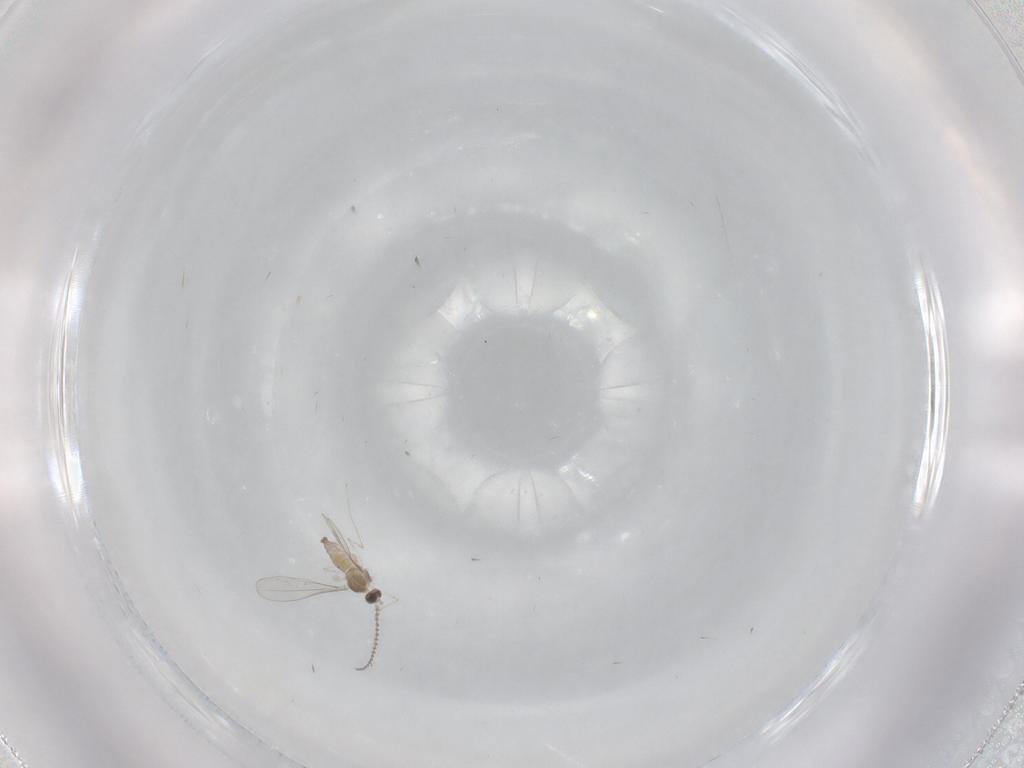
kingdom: Animalia
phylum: Arthropoda
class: Insecta
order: Diptera
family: Cecidomyiidae
